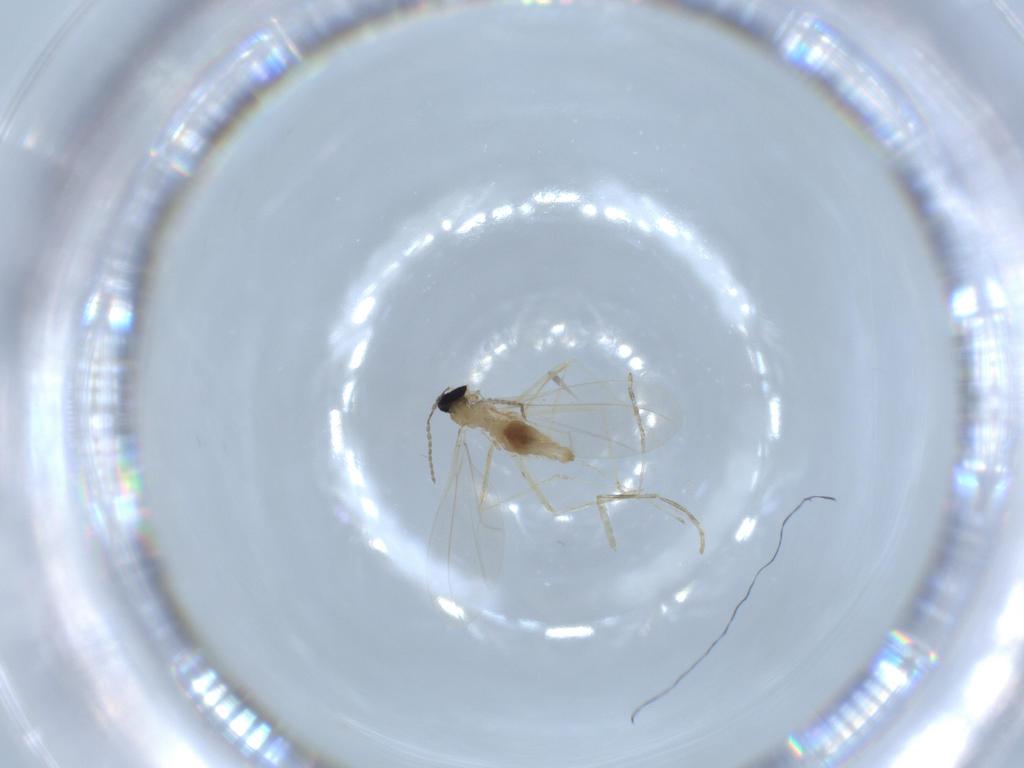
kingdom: Animalia
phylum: Arthropoda
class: Insecta
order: Diptera
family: Cecidomyiidae
